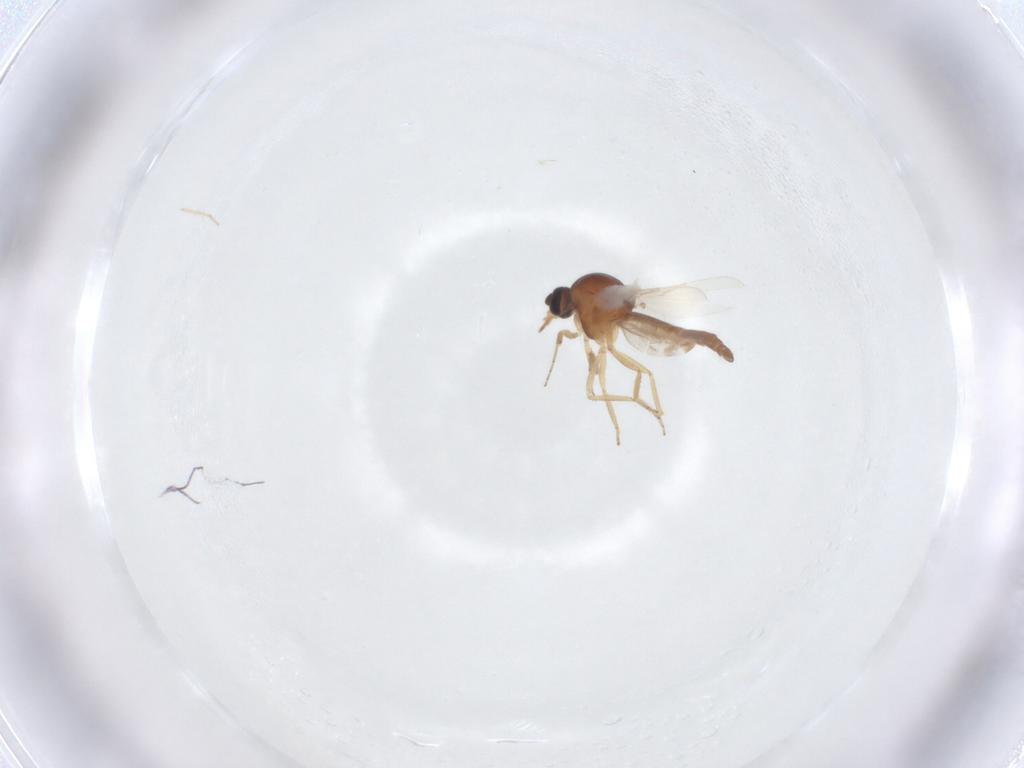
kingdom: Animalia
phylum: Arthropoda
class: Insecta
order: Diptera
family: Ceratopogonidae
